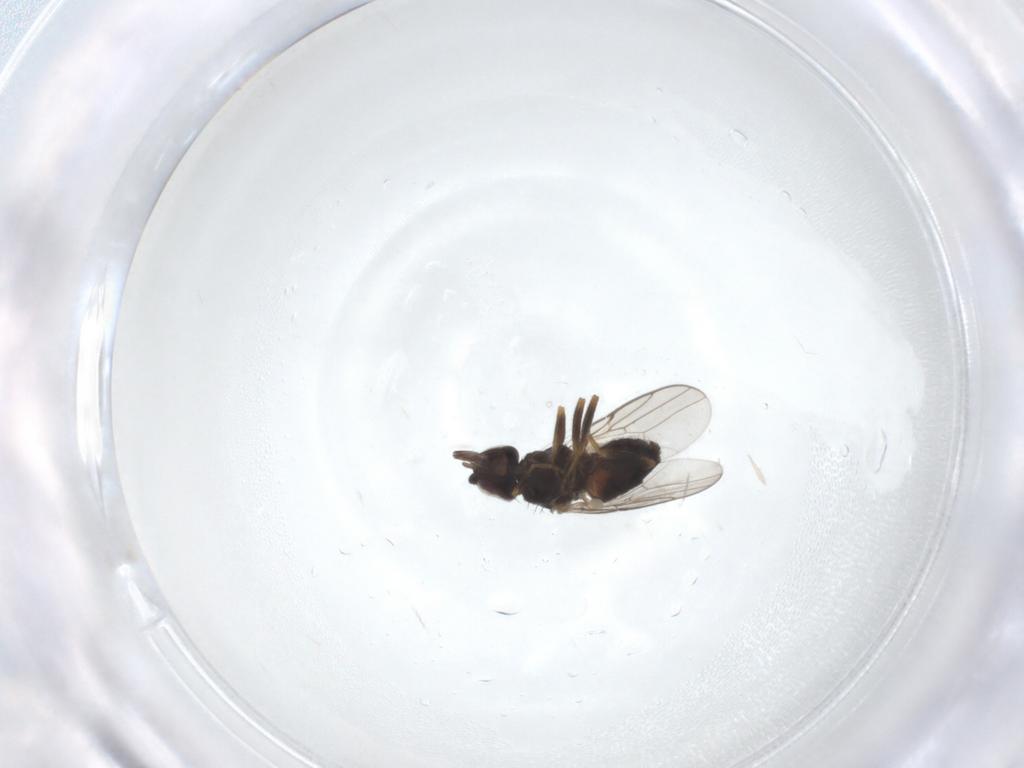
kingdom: Animalia
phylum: Arthropoda
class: Insecta
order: Diptera
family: Chloropidae
